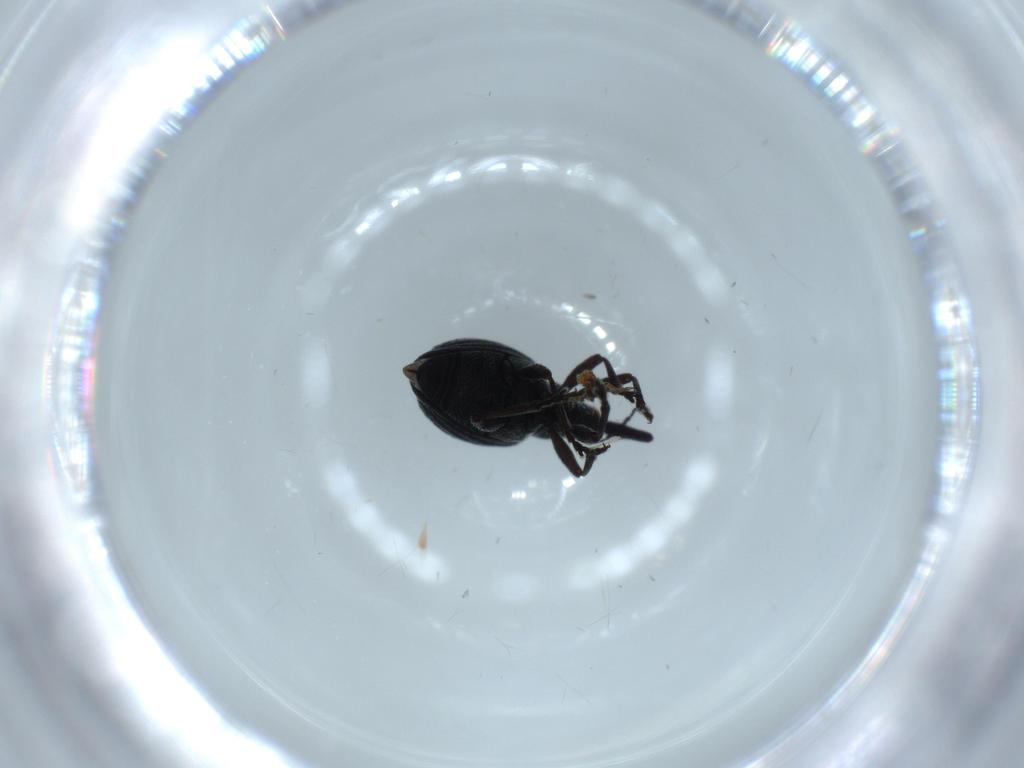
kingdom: Animalia
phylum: Arthropoda
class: Insecta
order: Coleoptera
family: Brentidae
